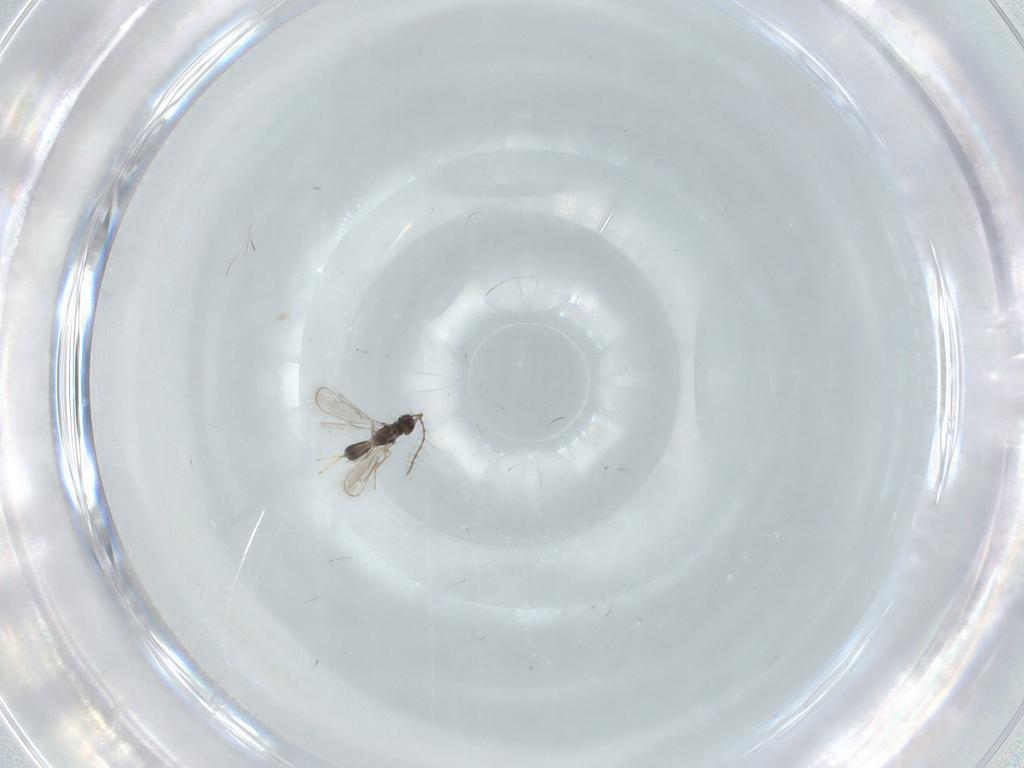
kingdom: Animalia
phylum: Arthropoda
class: Insecta
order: Hymenoptera
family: Pteromalidae
